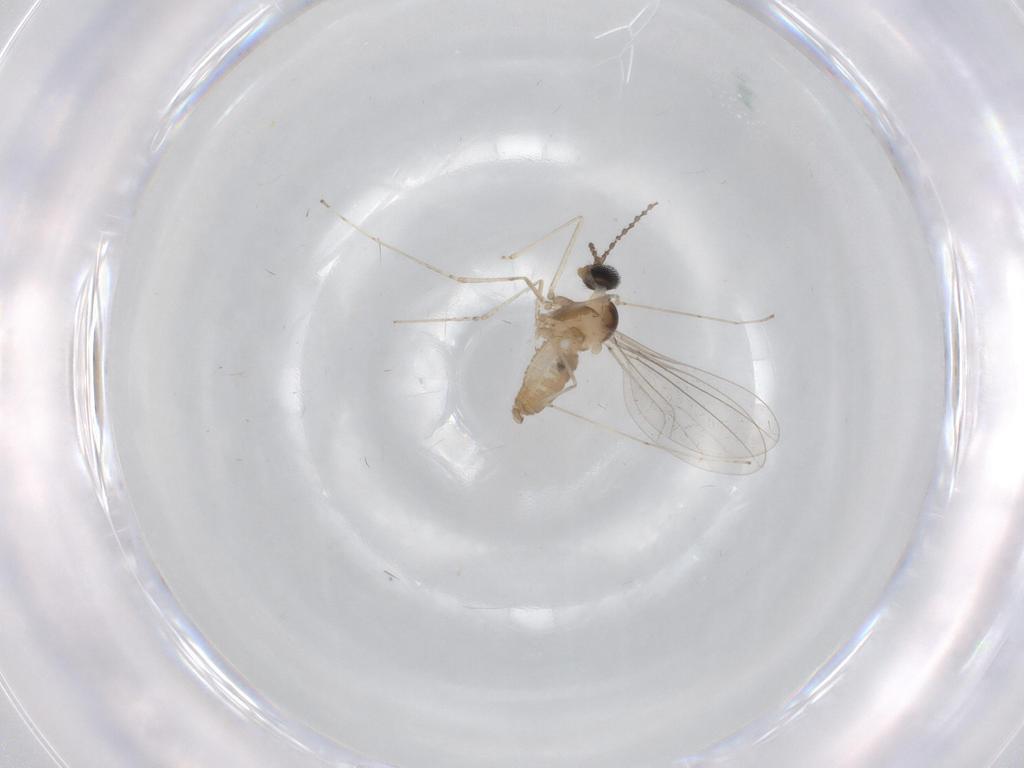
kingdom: Animalia
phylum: Arthropoda
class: Insecta
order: Diptera
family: Cecidomyiidae
